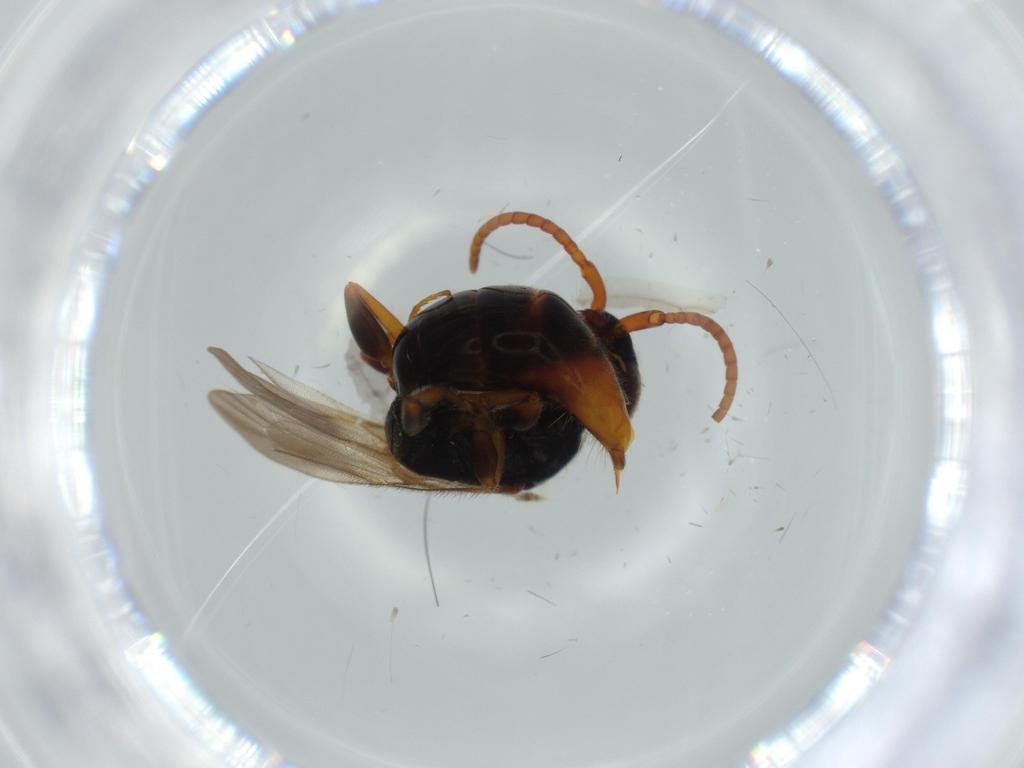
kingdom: Animalia
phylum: Arthropoda
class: Insecta
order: Hymenoptera
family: Bethylidae
